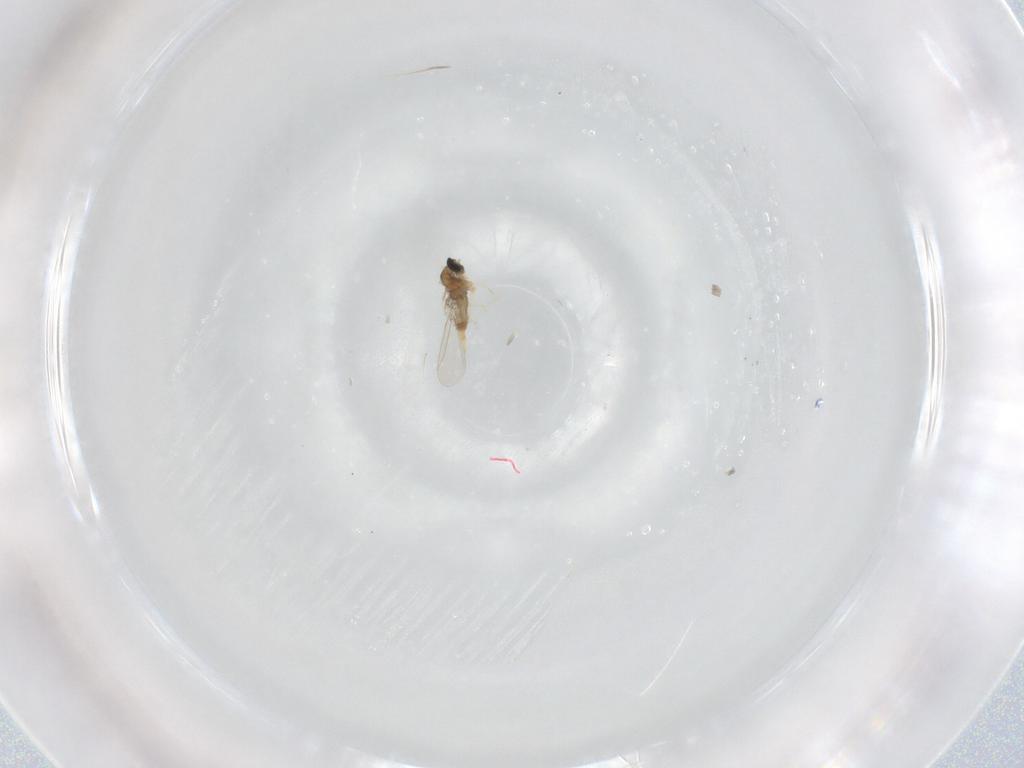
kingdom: Animalia
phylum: Arthropoda
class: Insecta
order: Diptera
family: Cecidomyiidae
